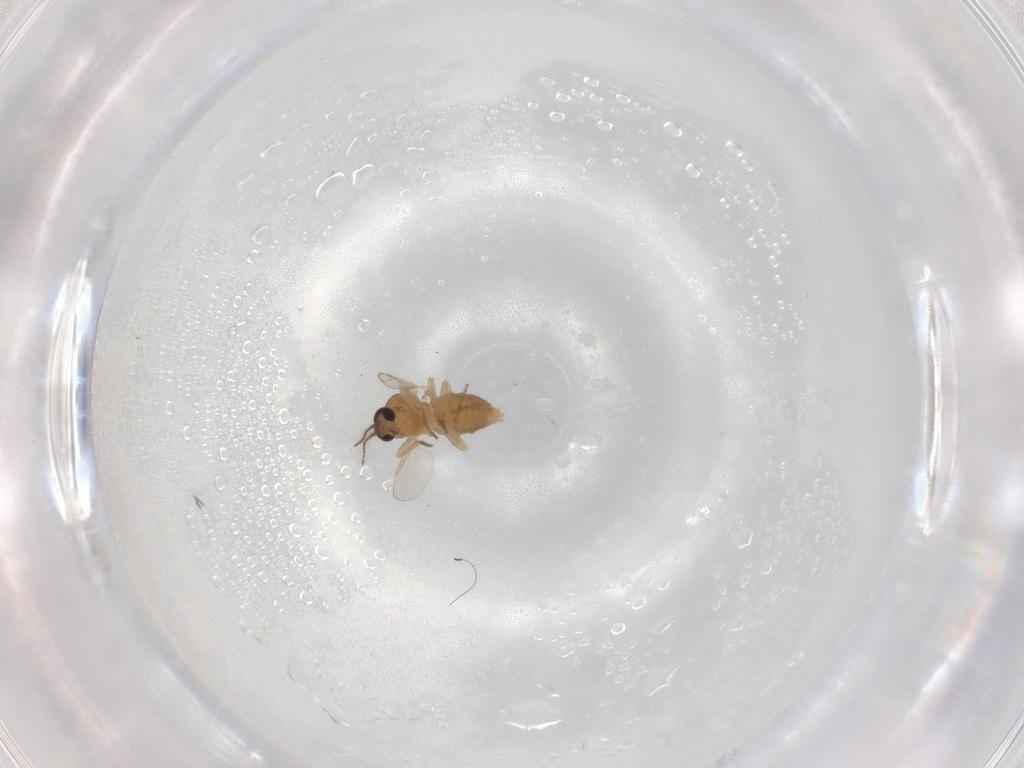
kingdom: Animalia
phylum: Arthropoda
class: Insecta
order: Diptera
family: Ceratopogonidae
